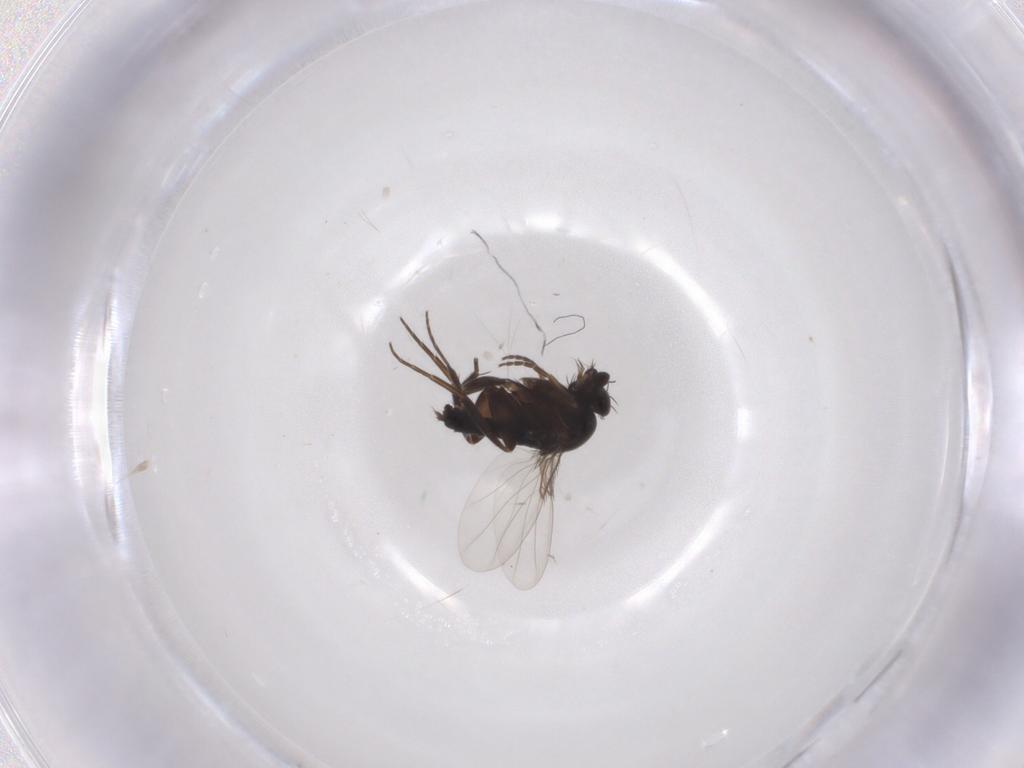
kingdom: Animalia
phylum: Arthropoda
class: Insecta
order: Diptera
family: Phoridae
